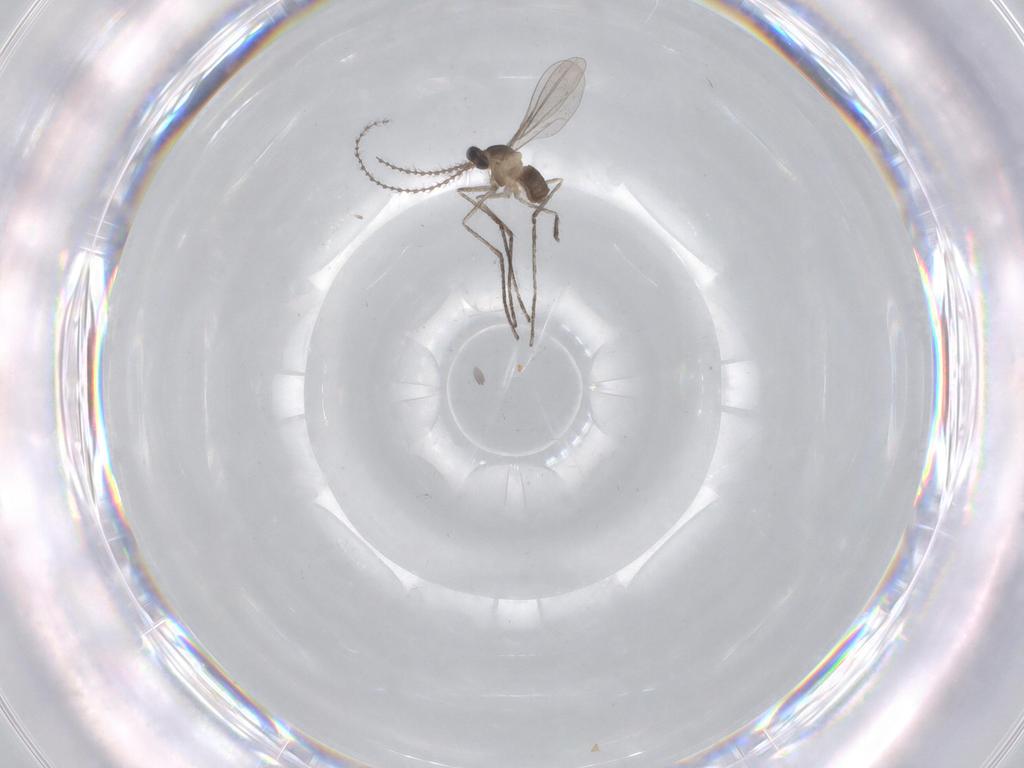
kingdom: Animalia
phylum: Arthropoda
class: Insecta
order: Diptera
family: Cecidomyiidae
